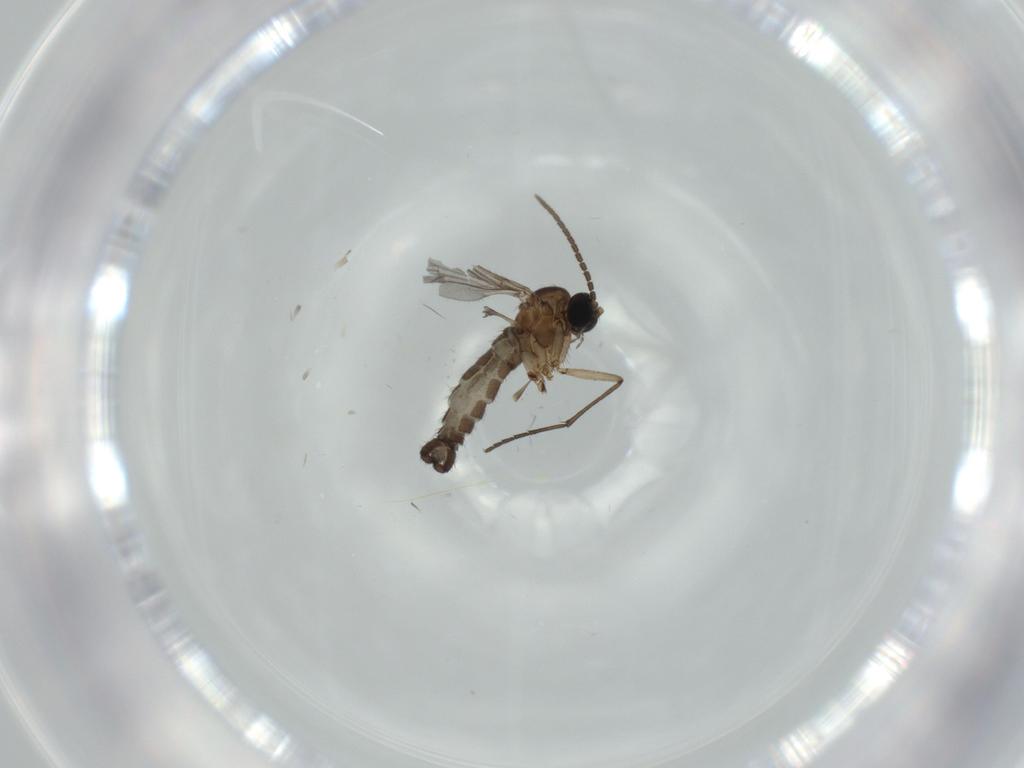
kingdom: Animalia
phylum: Arthropoda
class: Insecta
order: Diptera
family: Sciaridae
